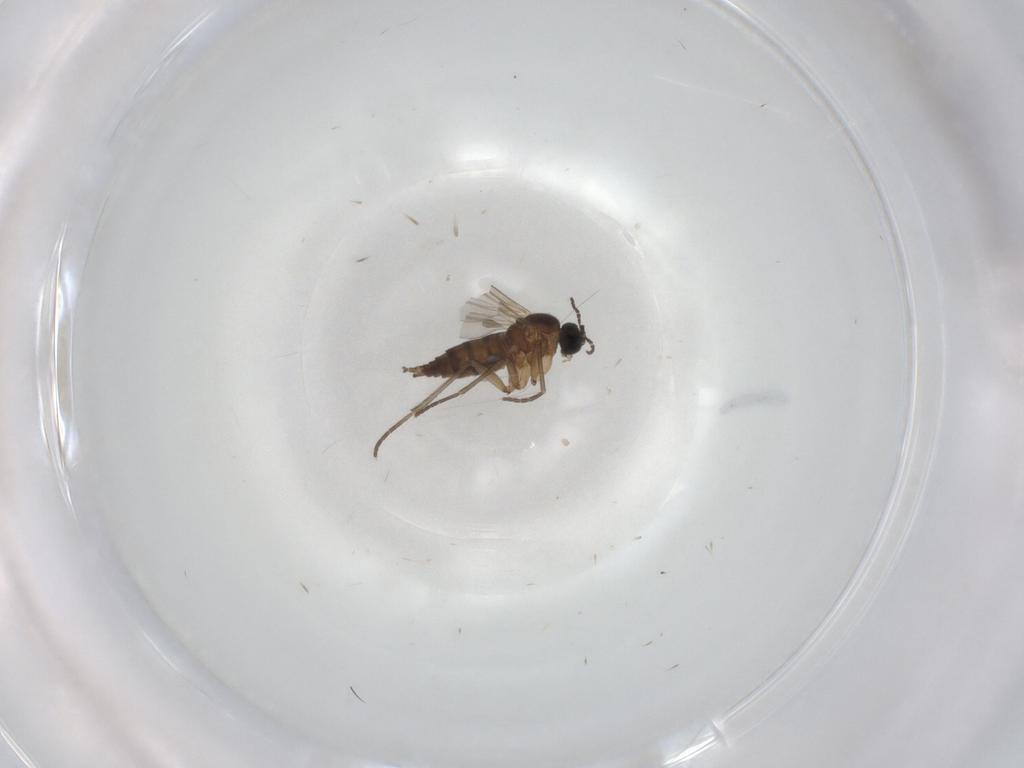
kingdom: Animalia
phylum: Arthropoda
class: Insecta
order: Diptera
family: Sciaridae
